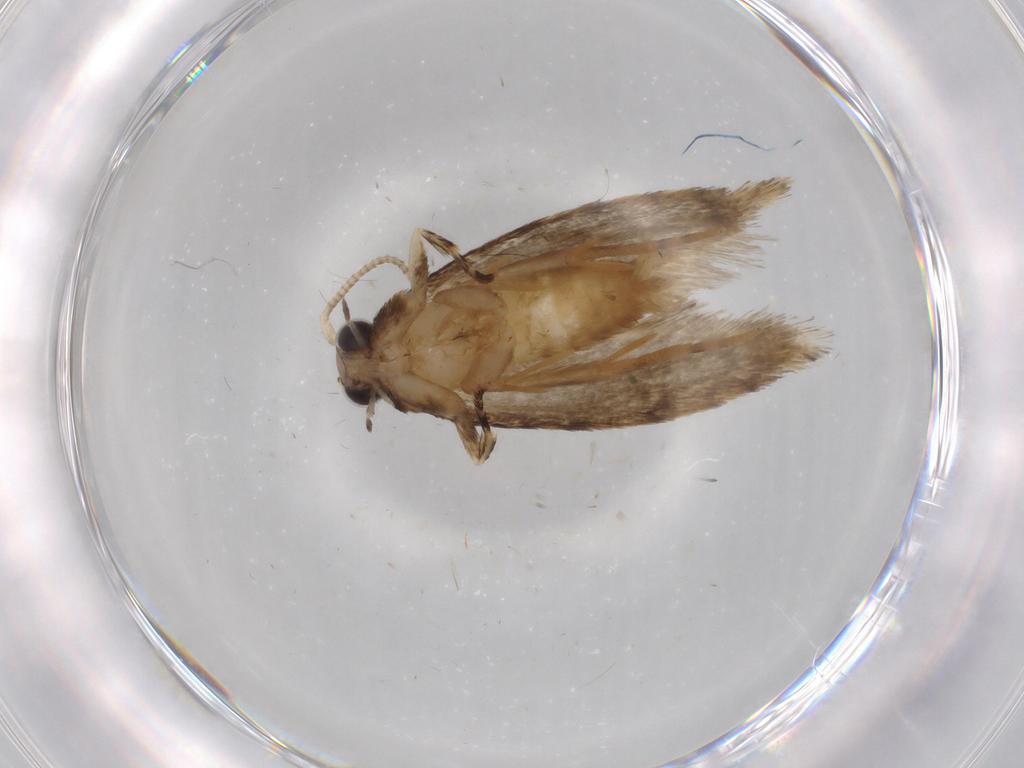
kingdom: Animalia
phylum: Arthropoda
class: Insecta
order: Lepidoptera
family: Tineidae
